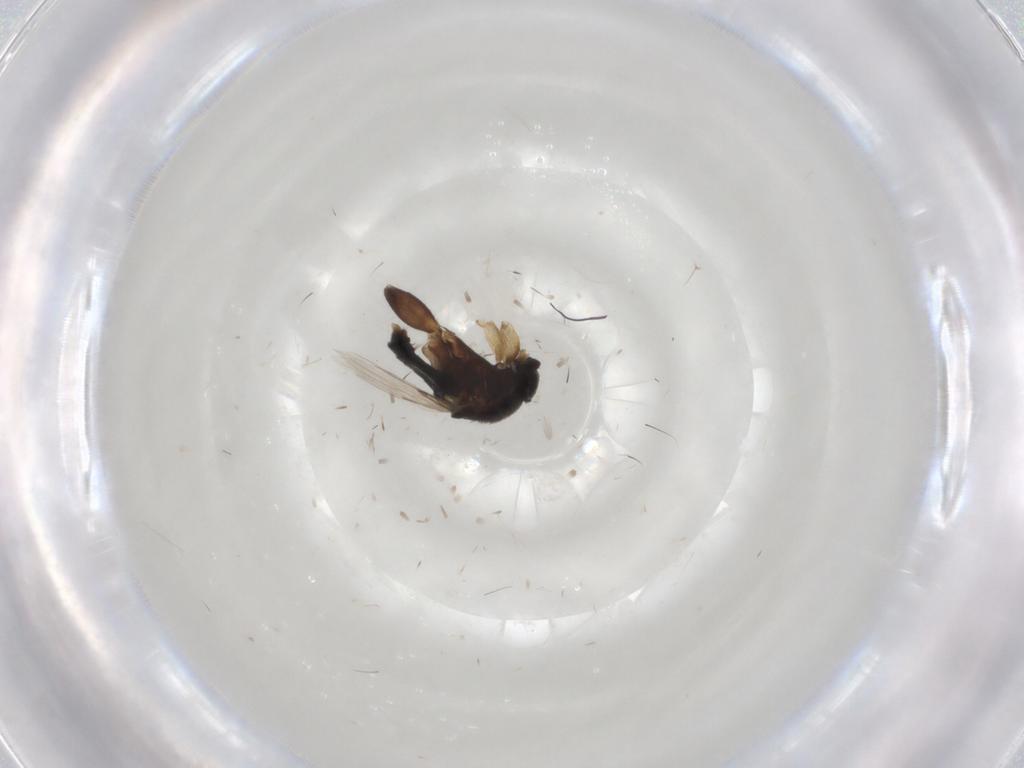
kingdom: Animalia
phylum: Arthropoda
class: Insecta
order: Diptera
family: Phoridae
